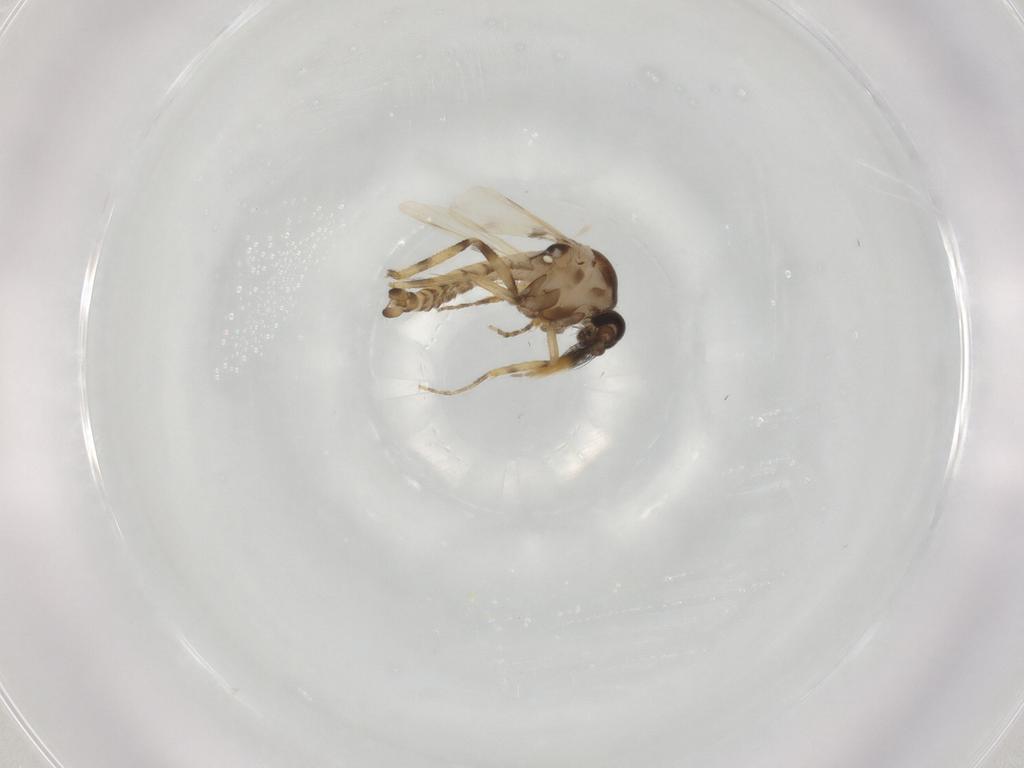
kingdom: Animalia
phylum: Arthropoda
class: Insecta
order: Diptera
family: Ceratopogonidae
